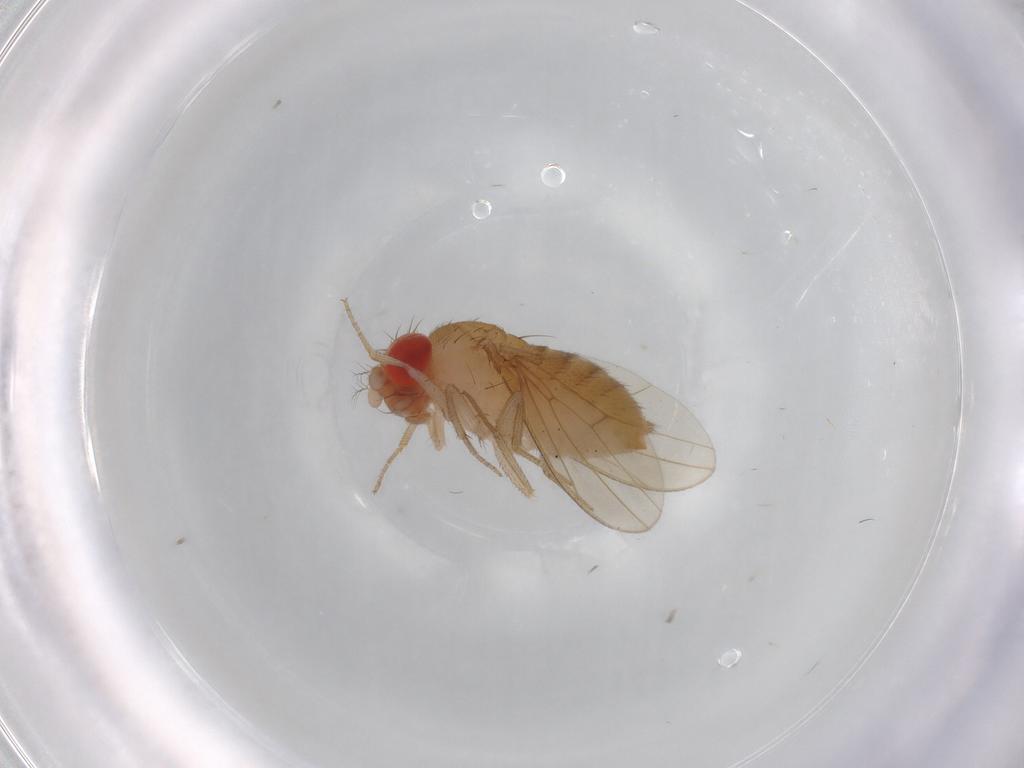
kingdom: Animalia
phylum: Arthropoda
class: Insecta
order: Diptera
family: Drosophilidae
